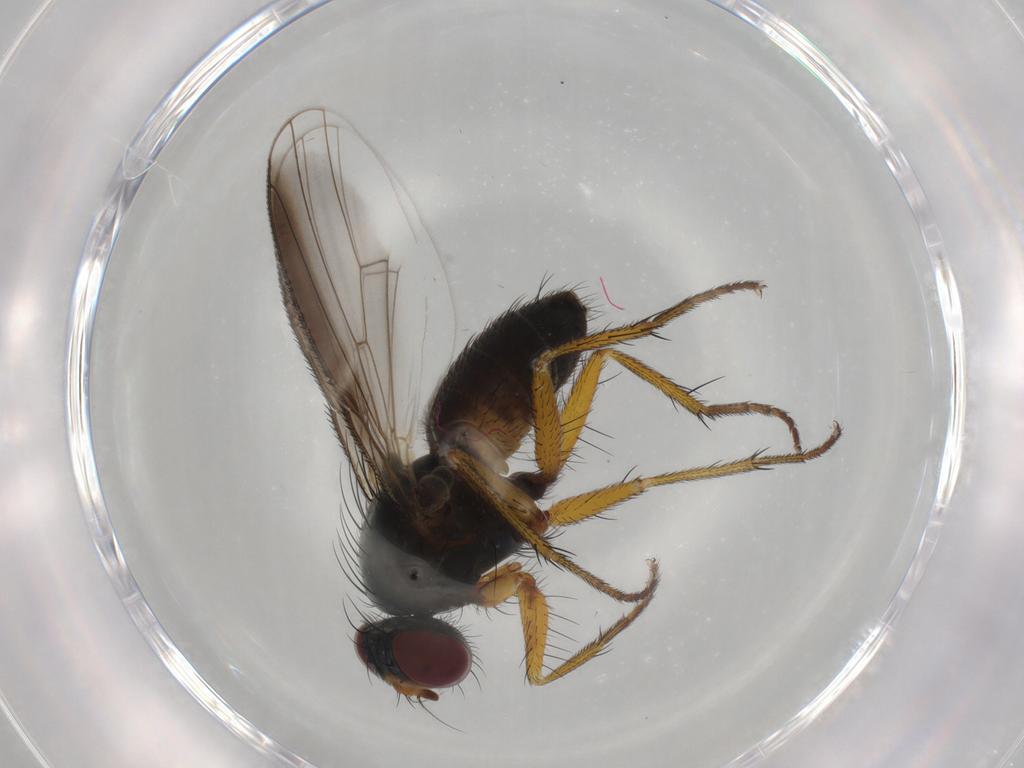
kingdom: Animalia
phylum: Arthropoda
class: Insecta
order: Diptera
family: Muscidae
